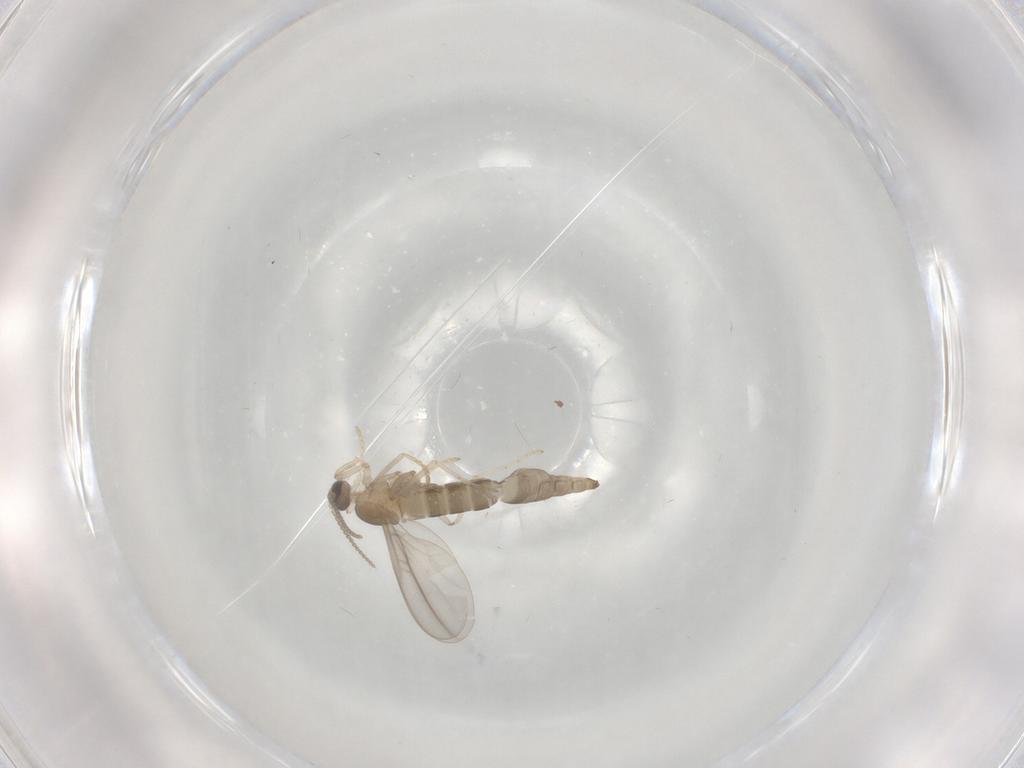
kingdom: Animalia
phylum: Arthropoda
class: Insecta
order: Diptera
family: Cecidomyiidae
